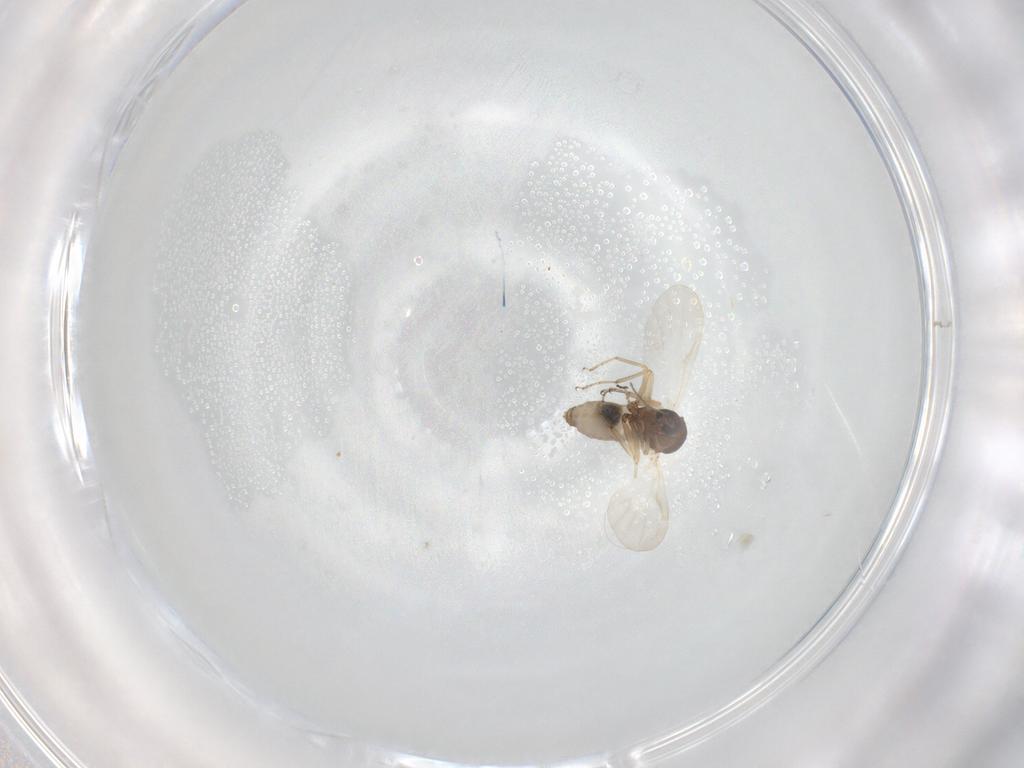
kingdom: Animalia
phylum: Arthropoda
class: Insecta
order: Diptera
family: Ceratopogonidae
